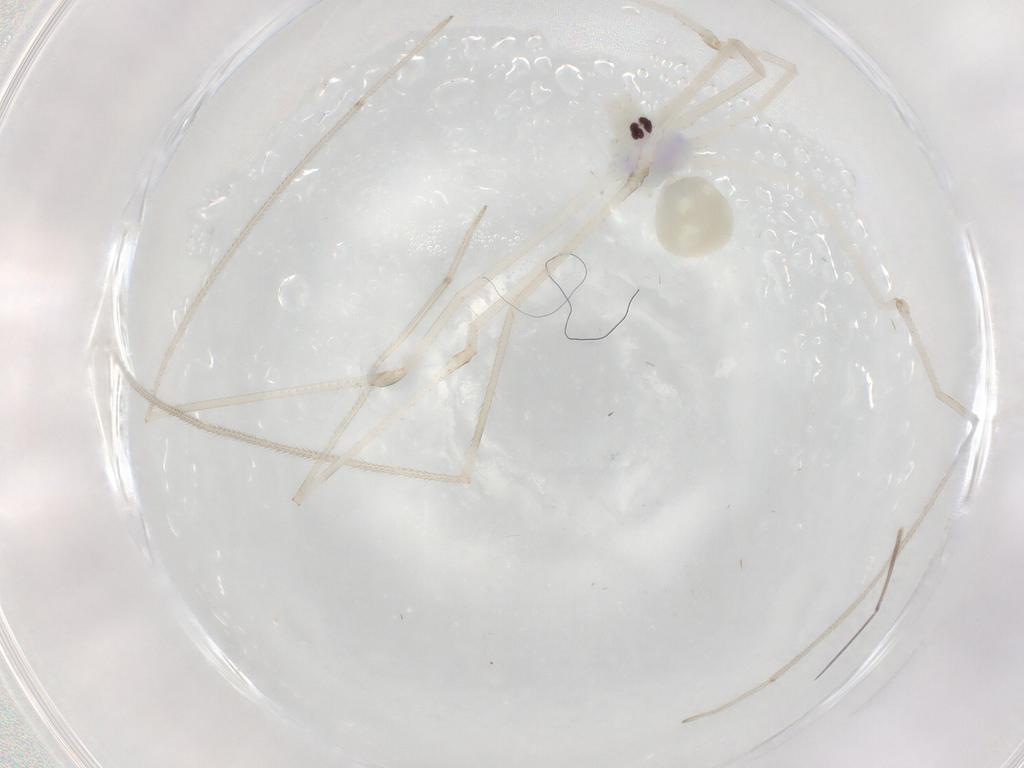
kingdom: Animalia
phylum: Arthropoda
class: Arachnida
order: Araneae
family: Pholcidae
